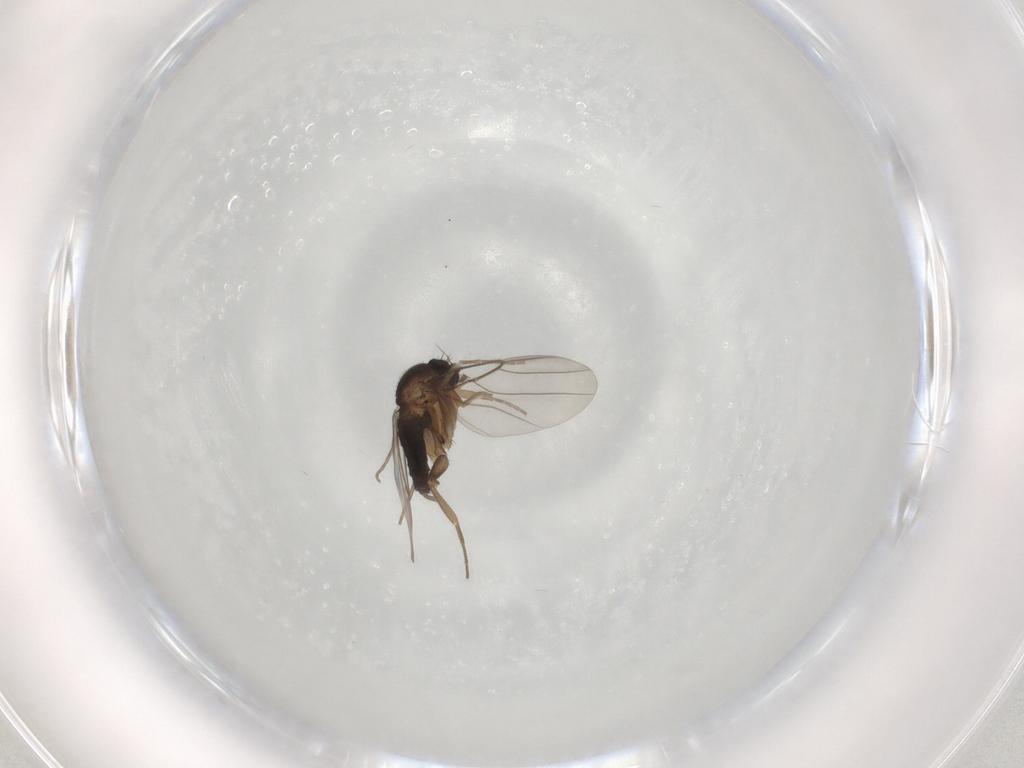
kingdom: Animalia
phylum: Arthropoda
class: Insecta
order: Diptera
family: Phoridae
